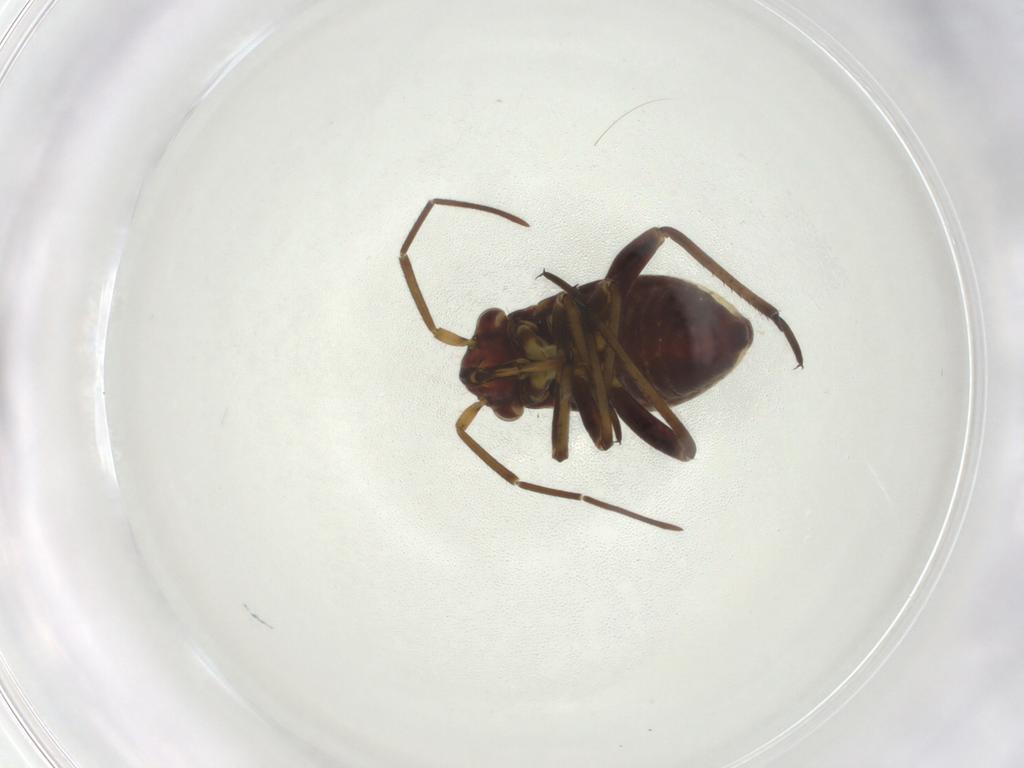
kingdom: Animalia
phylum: Arthropoda
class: Insecta
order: Hemiptera
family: Miridae
